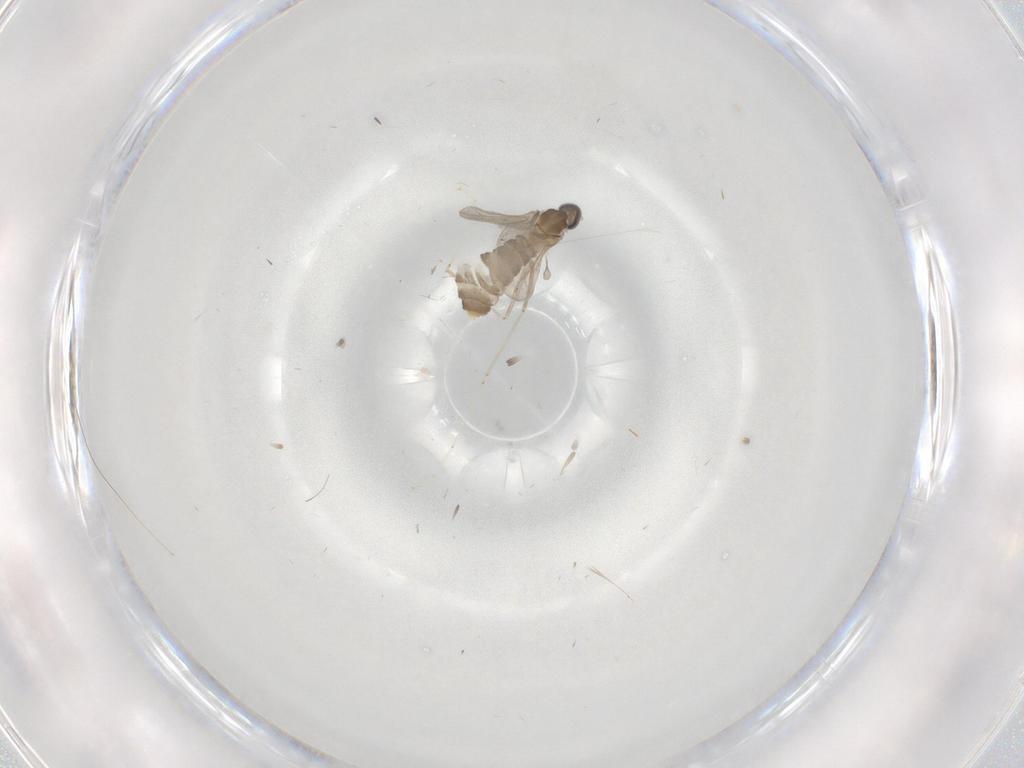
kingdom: Animalia
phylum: Arthropoda
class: Insecta
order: Diptera
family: Cecidomyiidae
